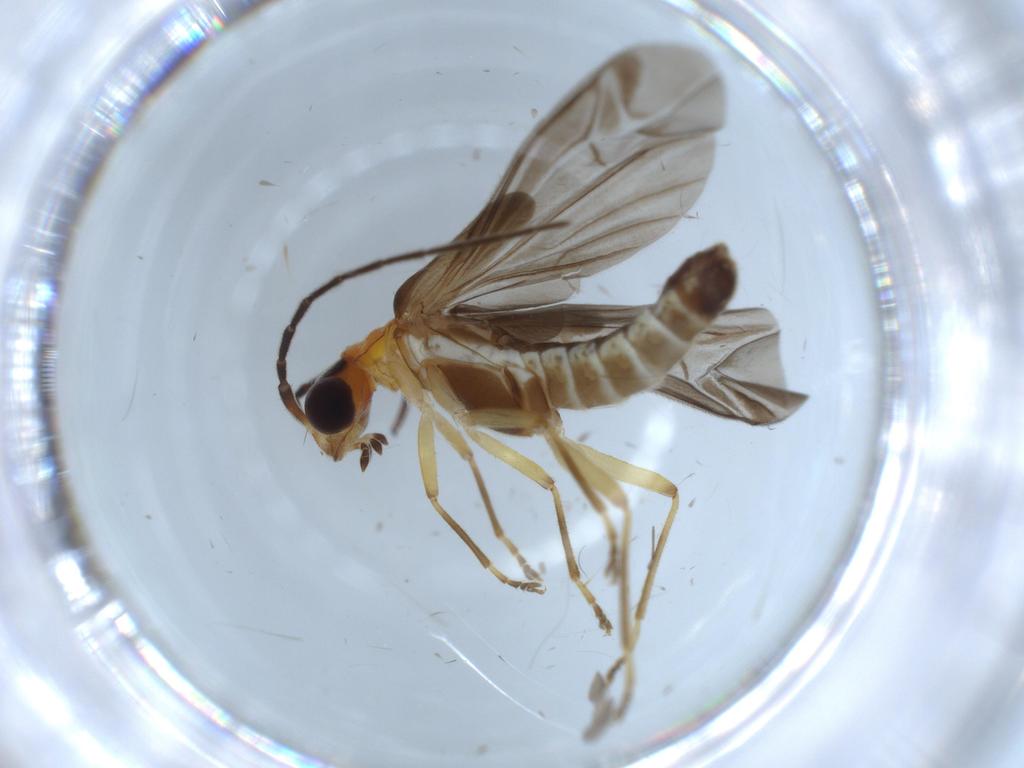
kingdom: Animalia
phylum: Arthropoda
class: Insecta
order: Coleoptera
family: Cantharidae
